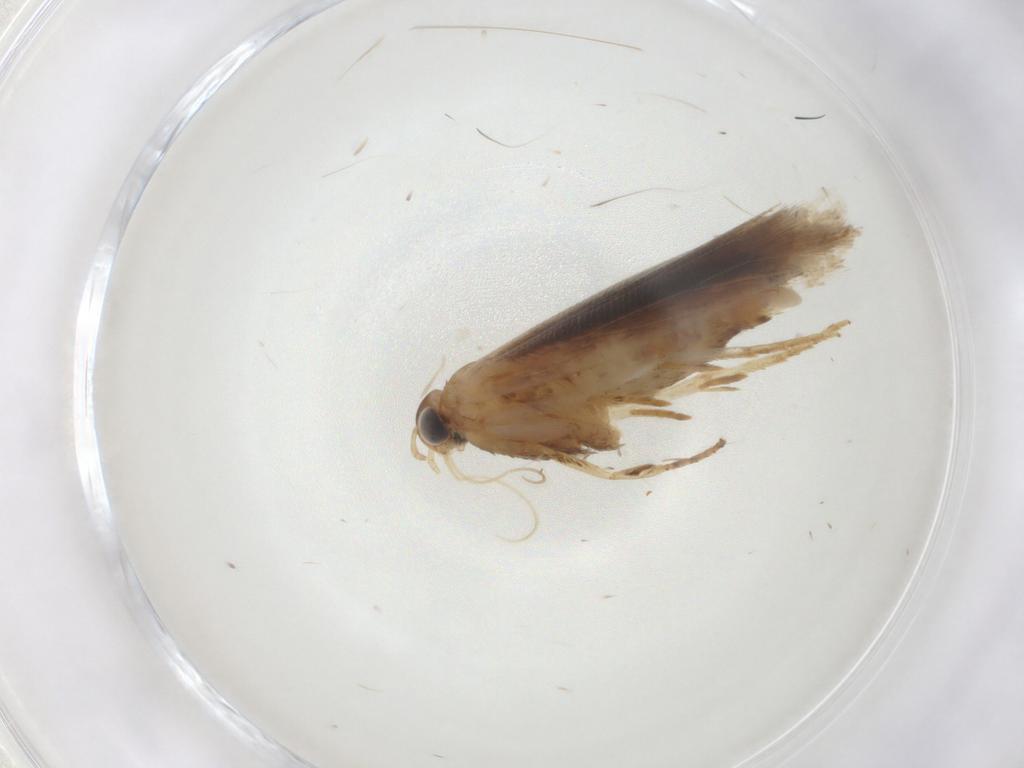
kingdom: Animalia
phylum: Arthropoda
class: Insecta
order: Lepidoptera
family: Gelechiidae
